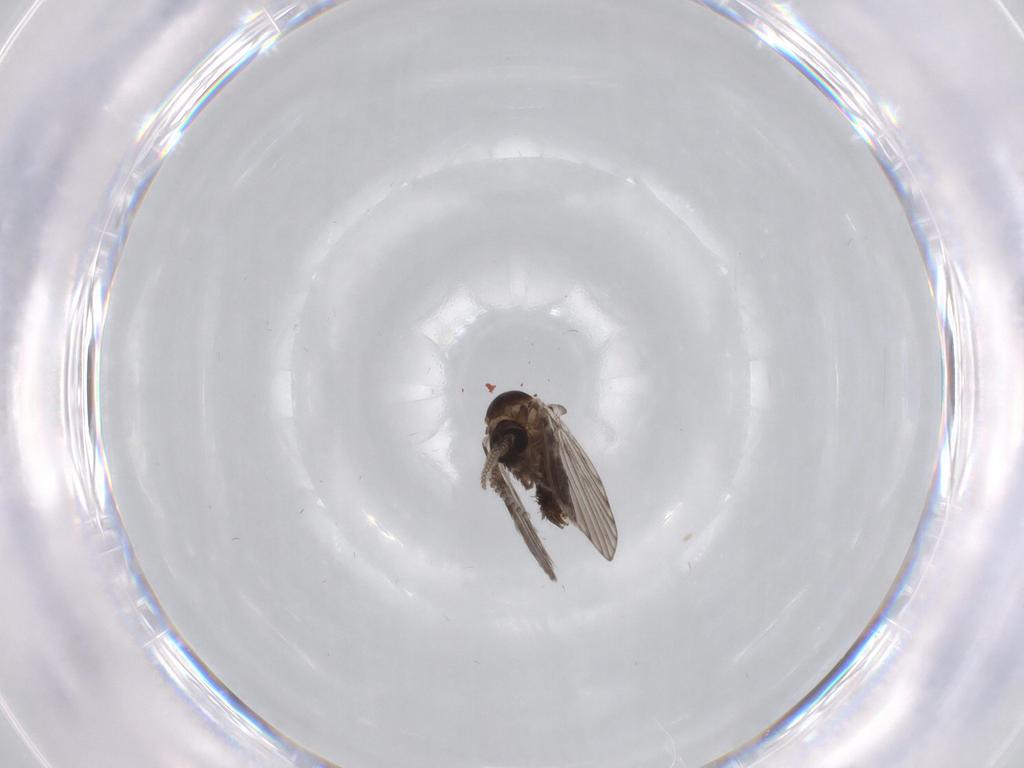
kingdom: Animalia
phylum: Arthropoda
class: Insecta
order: Diptera
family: Psychodidae
